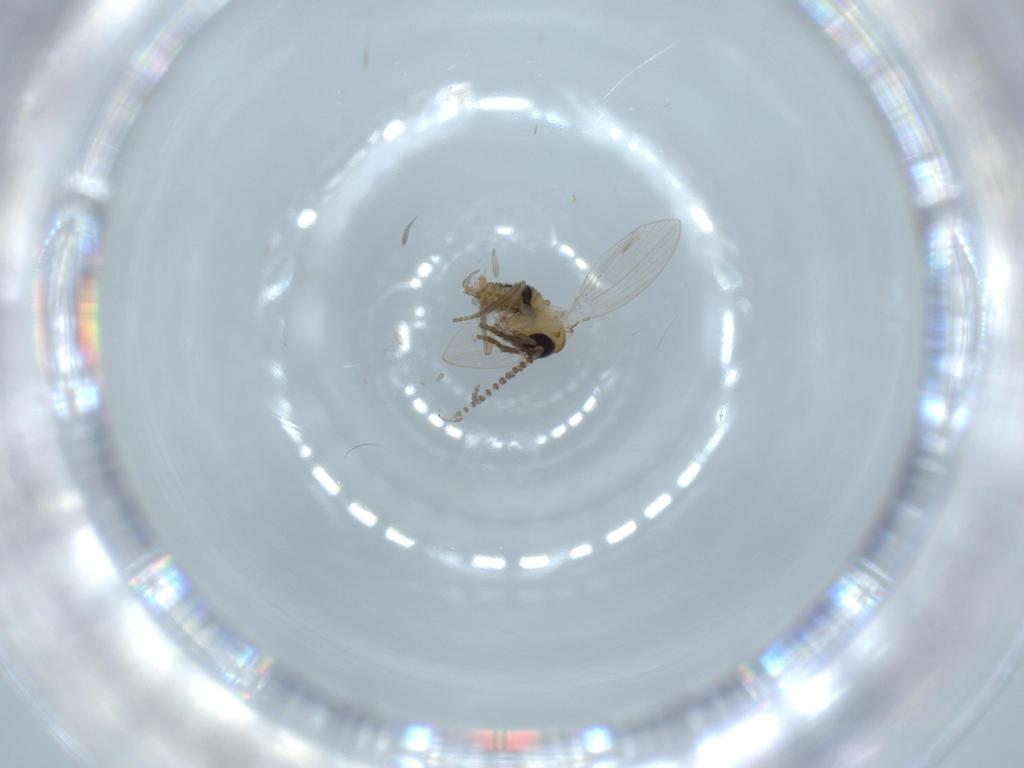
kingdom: Animalia
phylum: Arthropoda
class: Insecta
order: Diptera
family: Psychodidae
